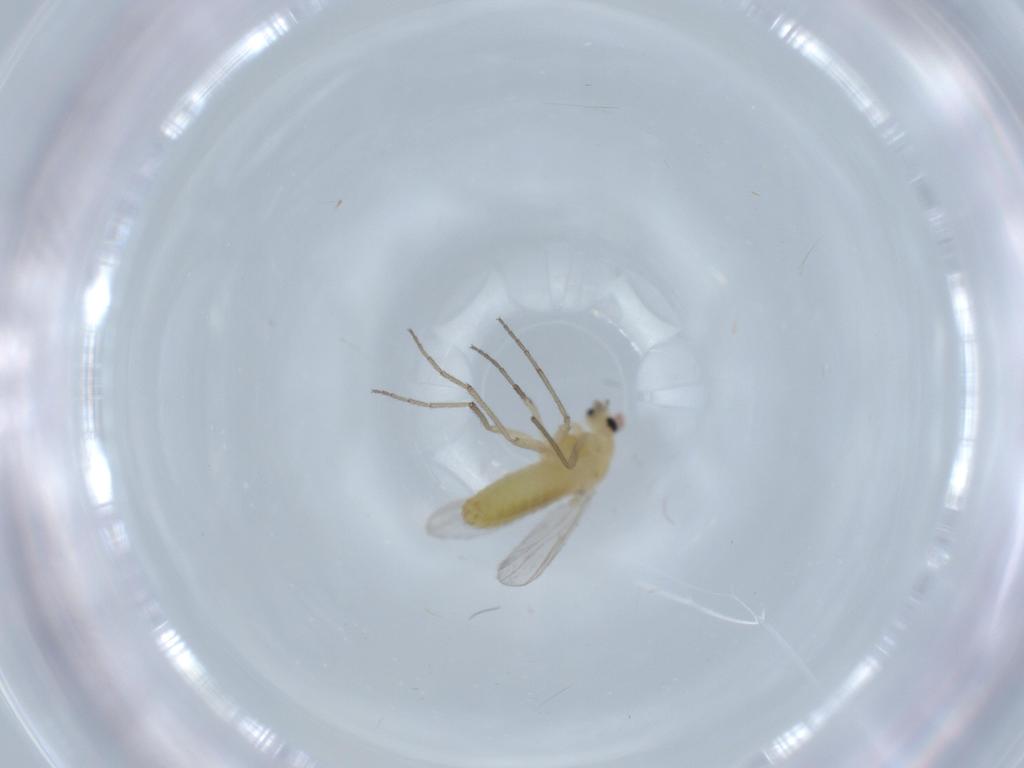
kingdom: Animalia
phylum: Arthropoda
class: Insecta
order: Diptera
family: Chironomidae
